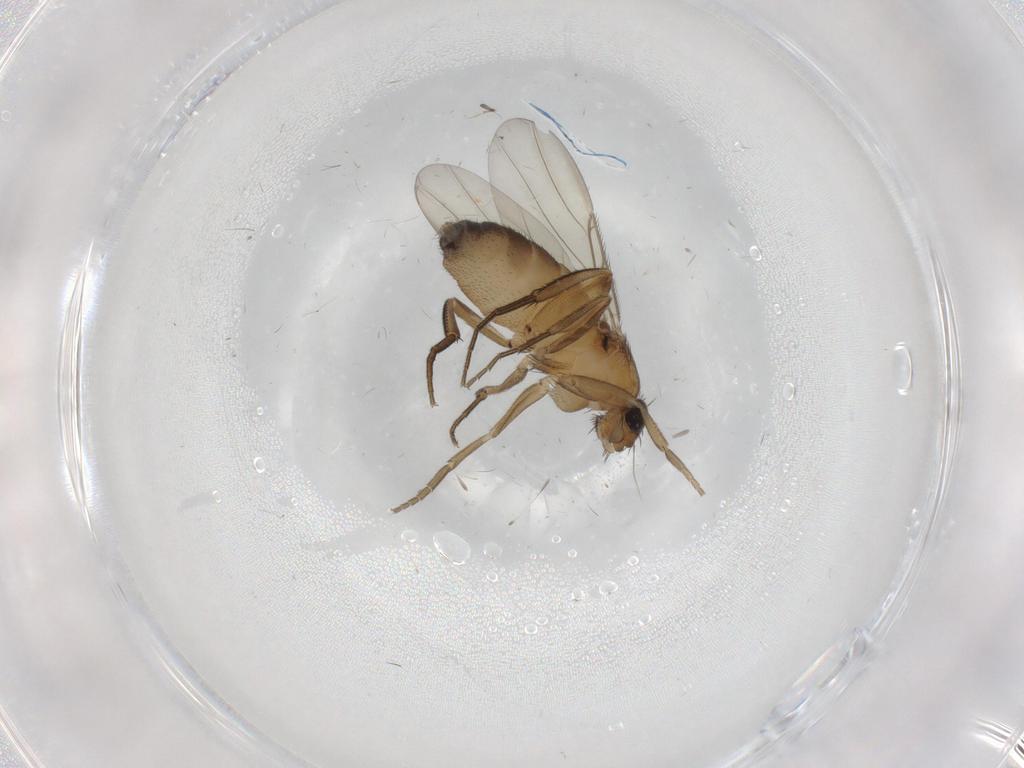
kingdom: Animalia
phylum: Arthropoda
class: Insecta
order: Diptera
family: Phoridae
